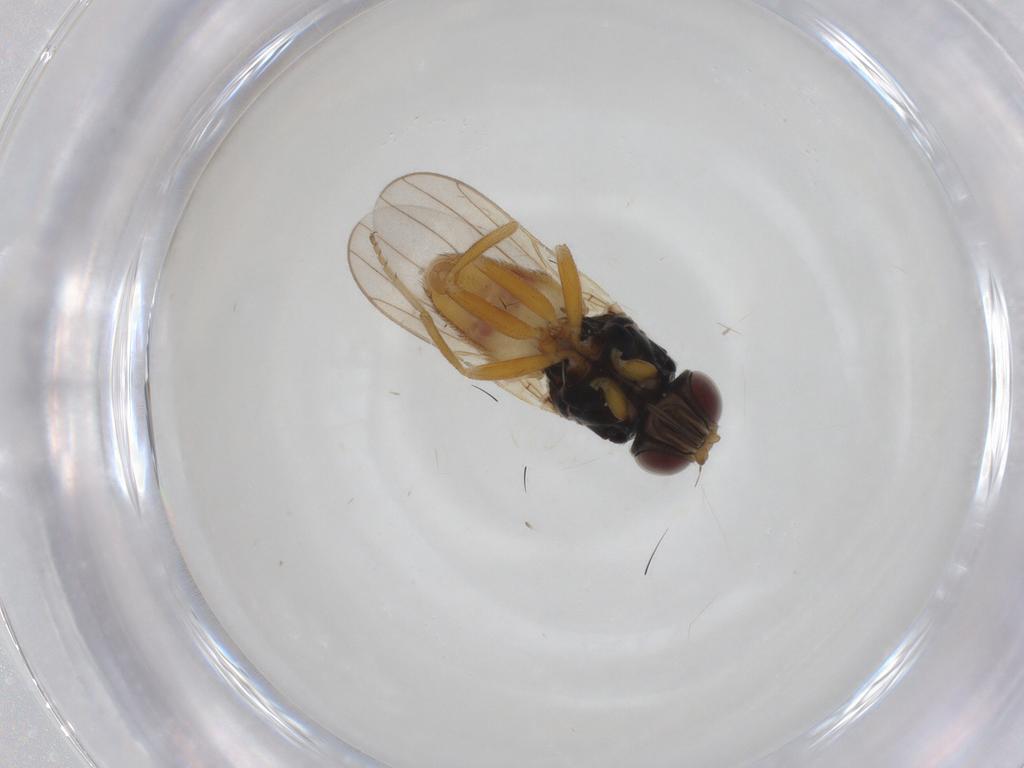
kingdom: Animalia
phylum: Arthropoda
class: Insecta
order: Diptera
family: Chloropidae
